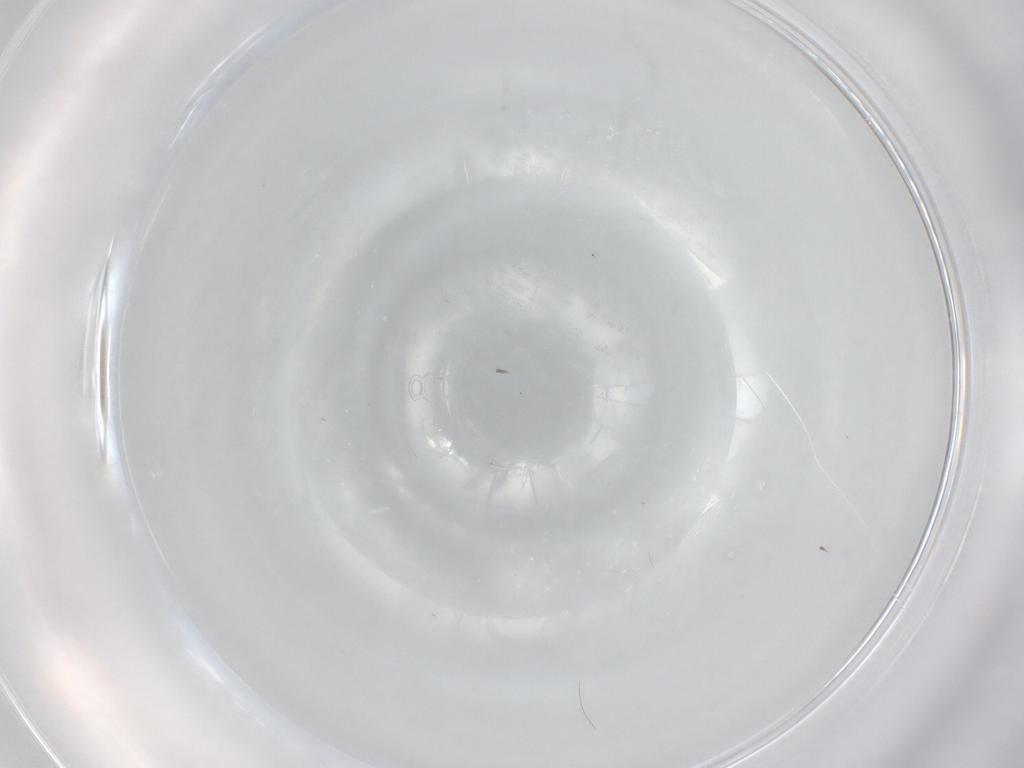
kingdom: Animalia
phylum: Arthropoda
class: Insecta
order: Diptera
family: Cecidomyiidae
